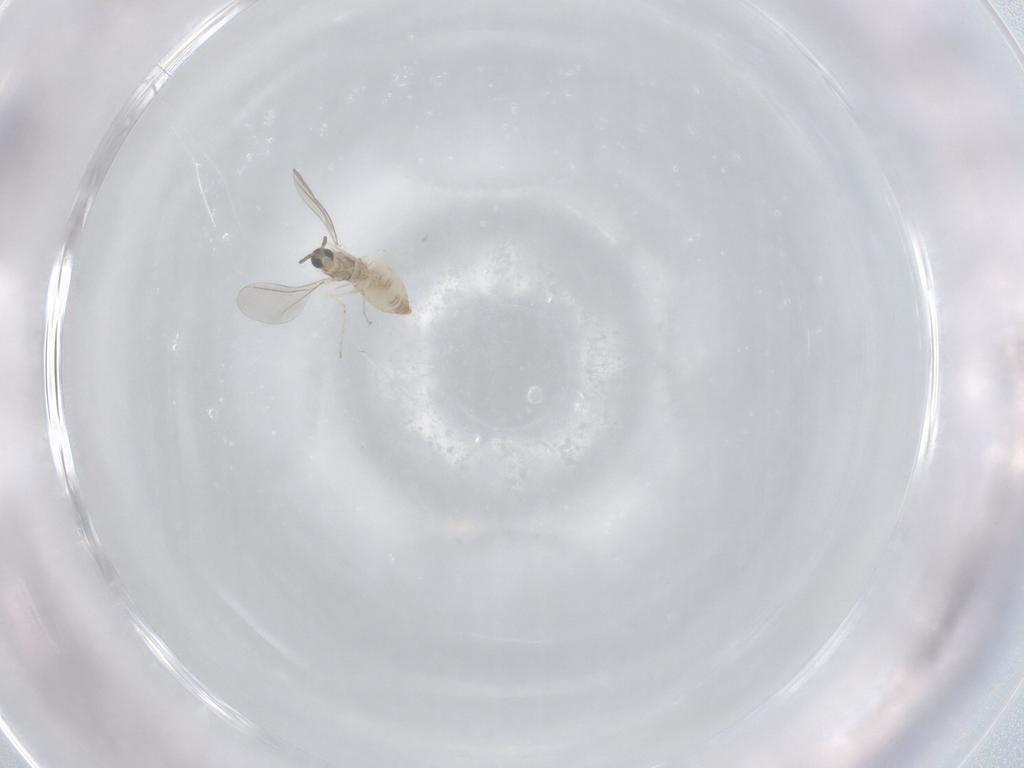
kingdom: Animalia
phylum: Arthropoda
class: Insecta
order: Diptera
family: Cecidomyiidae
